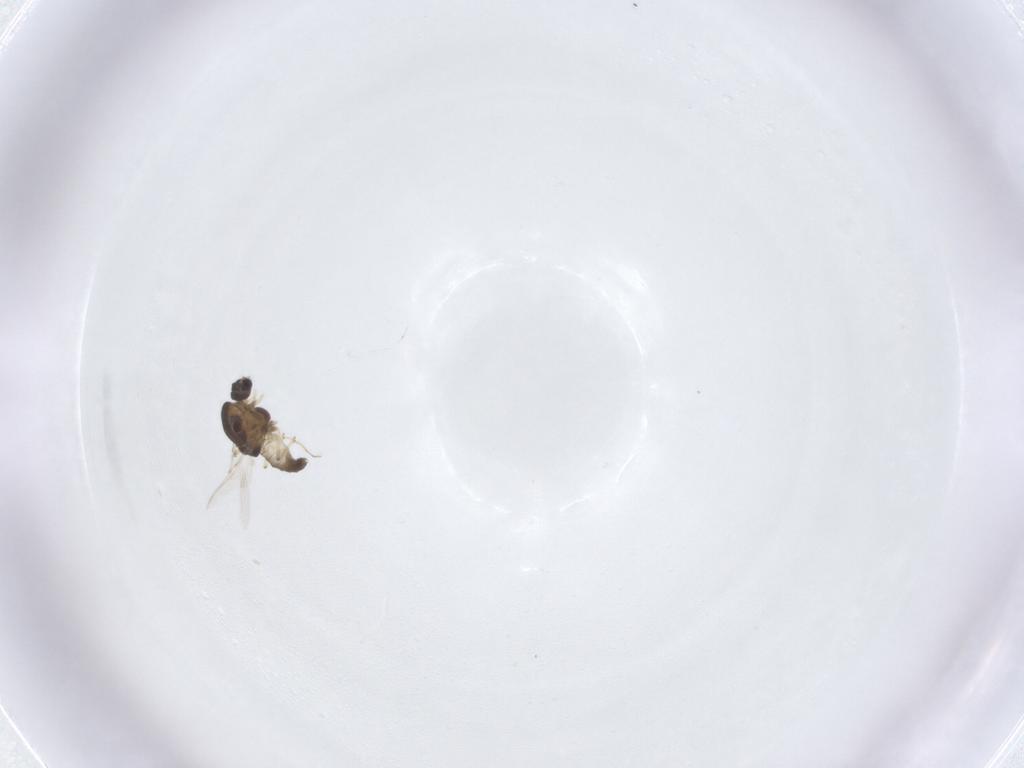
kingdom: Animalia
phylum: Arthropoda
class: Insecta
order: Diptera
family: Chironomidae
